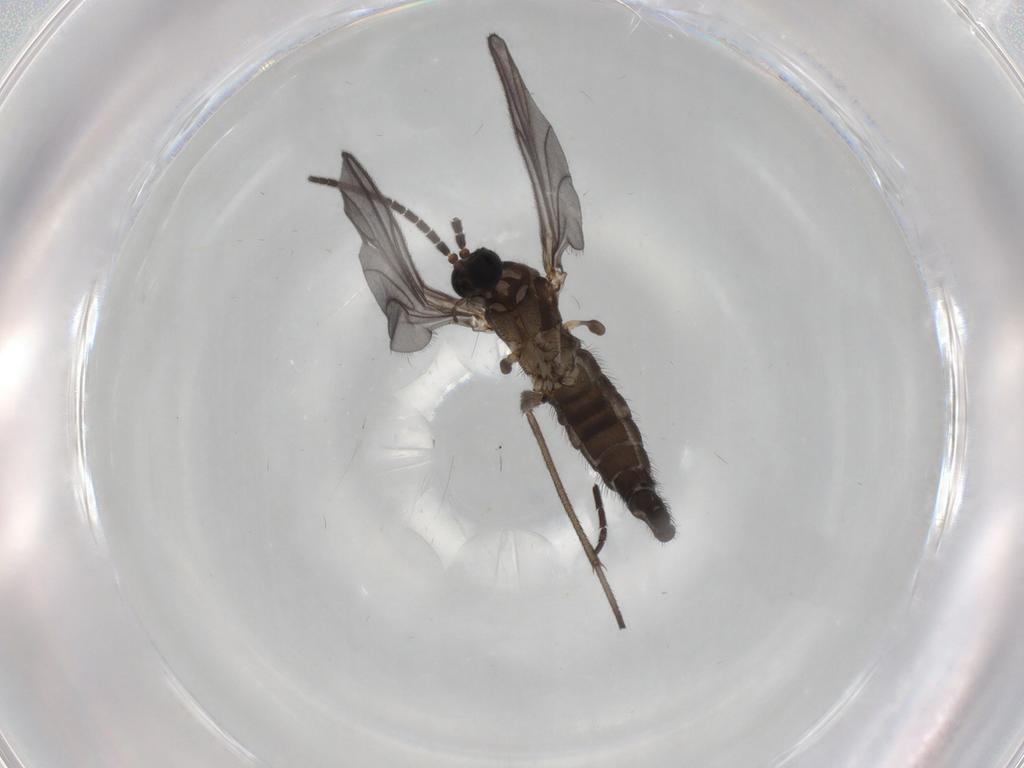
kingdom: Animalia
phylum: Arthropoda
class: Insecta
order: Diptera
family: Sciaridae
